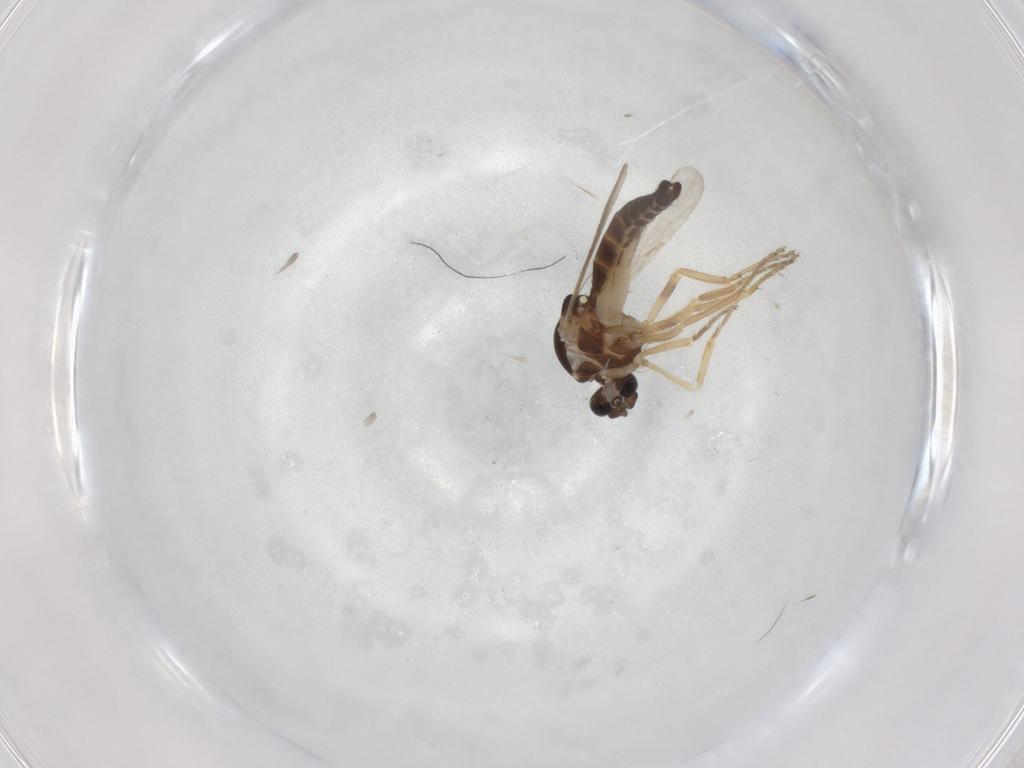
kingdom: Animalia
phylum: Arthropoda
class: Insecta
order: Diptera
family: Ceratopogonidae
